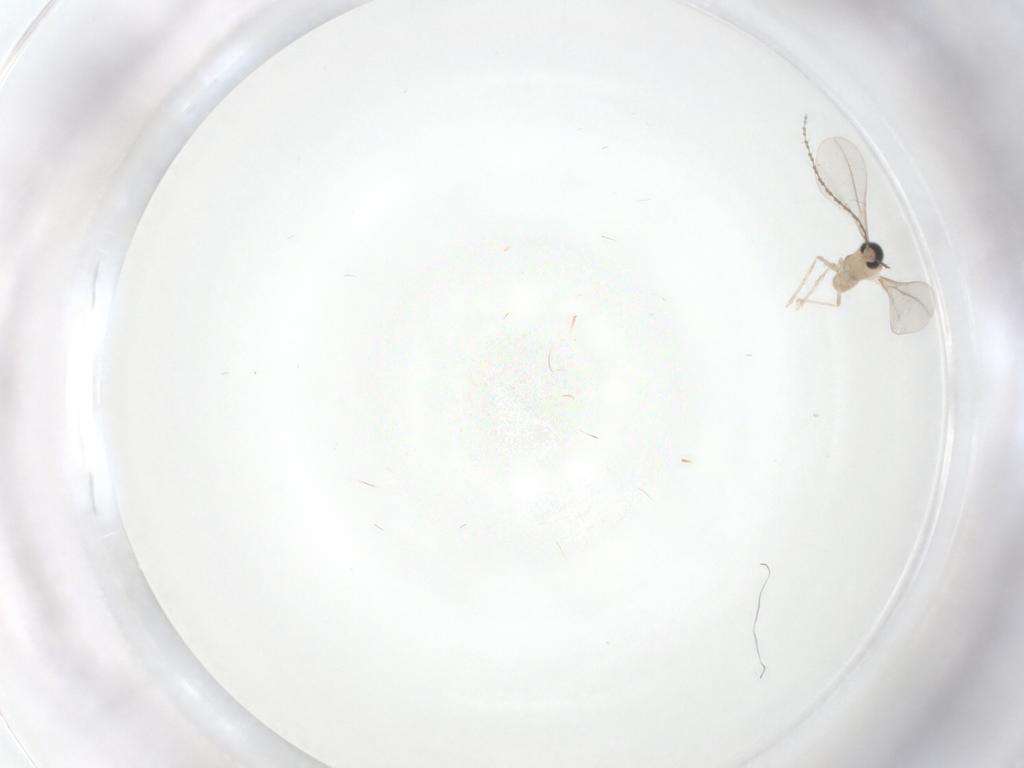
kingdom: Animalia
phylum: Arthropoda
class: Insecta
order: Diptera
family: Cecidomyiidae
